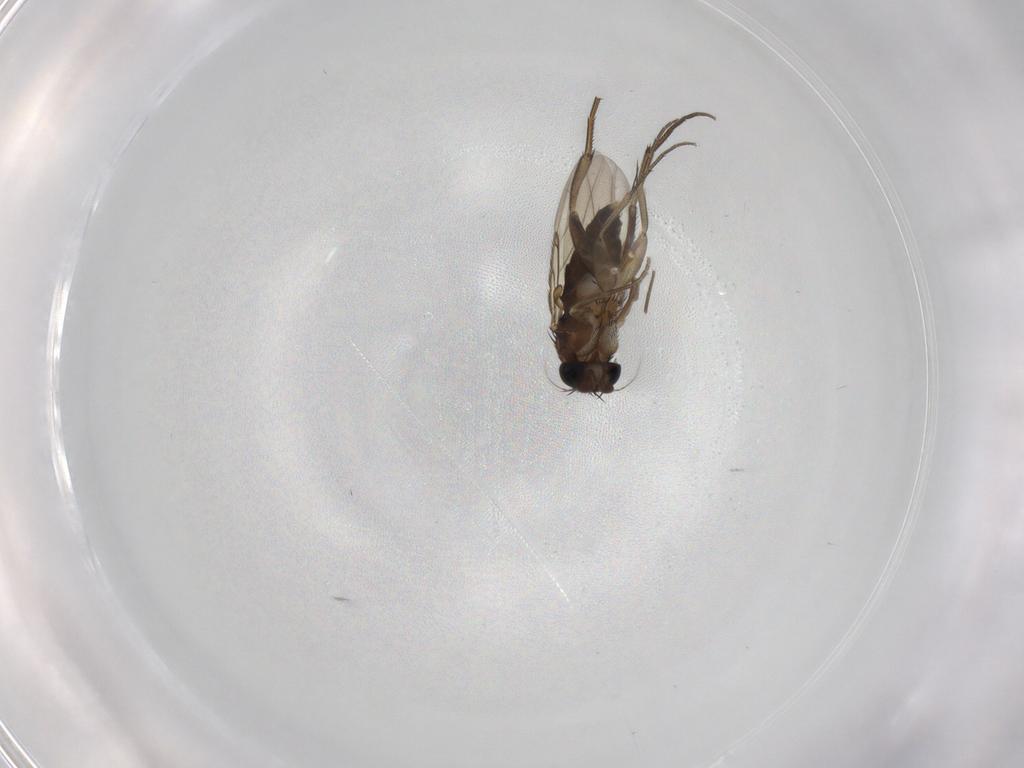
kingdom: Animalia
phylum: Arthropoda
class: Insecta
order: Diptera
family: Phoridae
